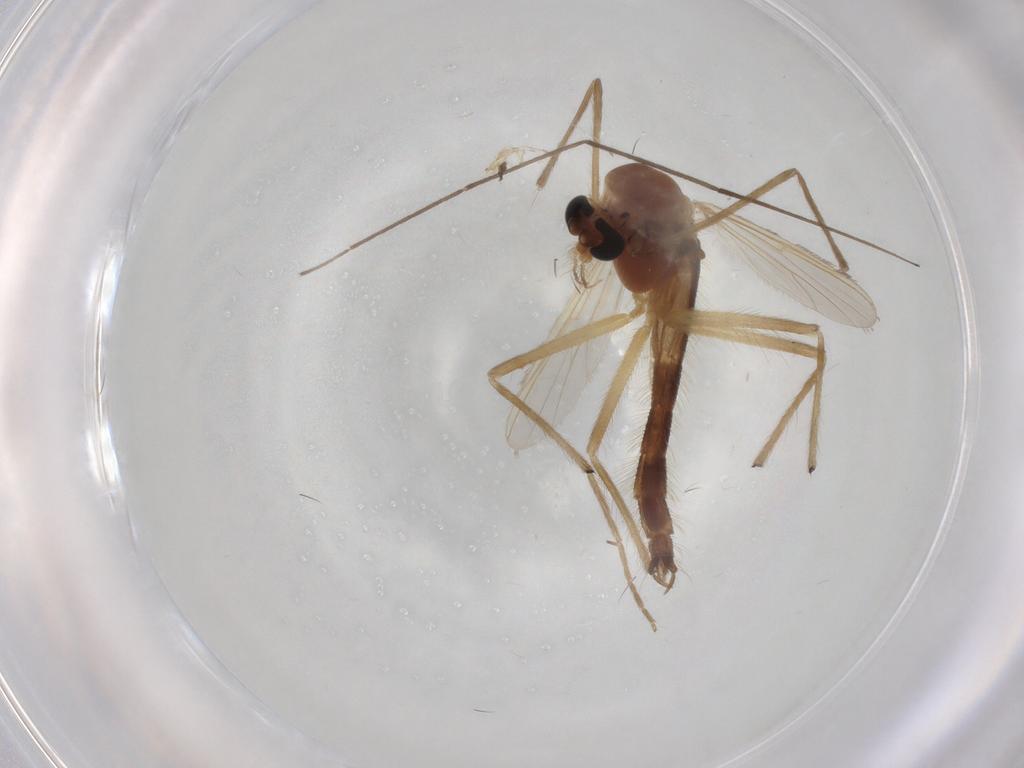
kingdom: Animalia
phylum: Arthropoda
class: Insecta
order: Diptera
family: Chironomidae
